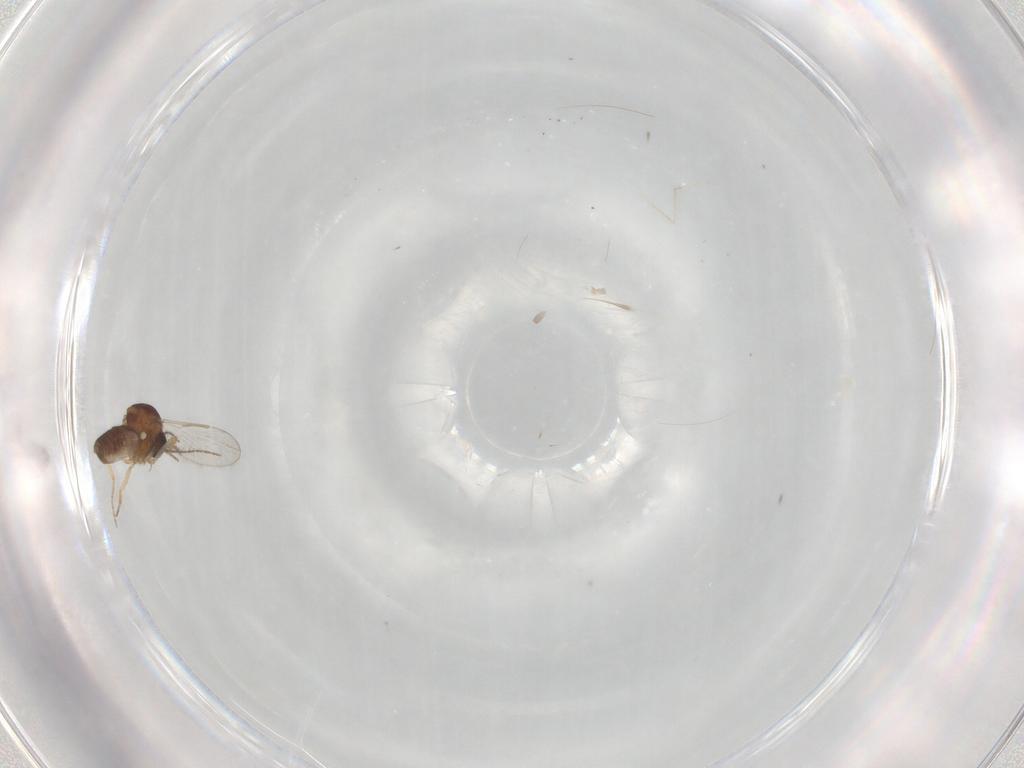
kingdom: Animalia
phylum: Arthropoda
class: Insecta
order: Diptera
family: Ceratopogonidae
